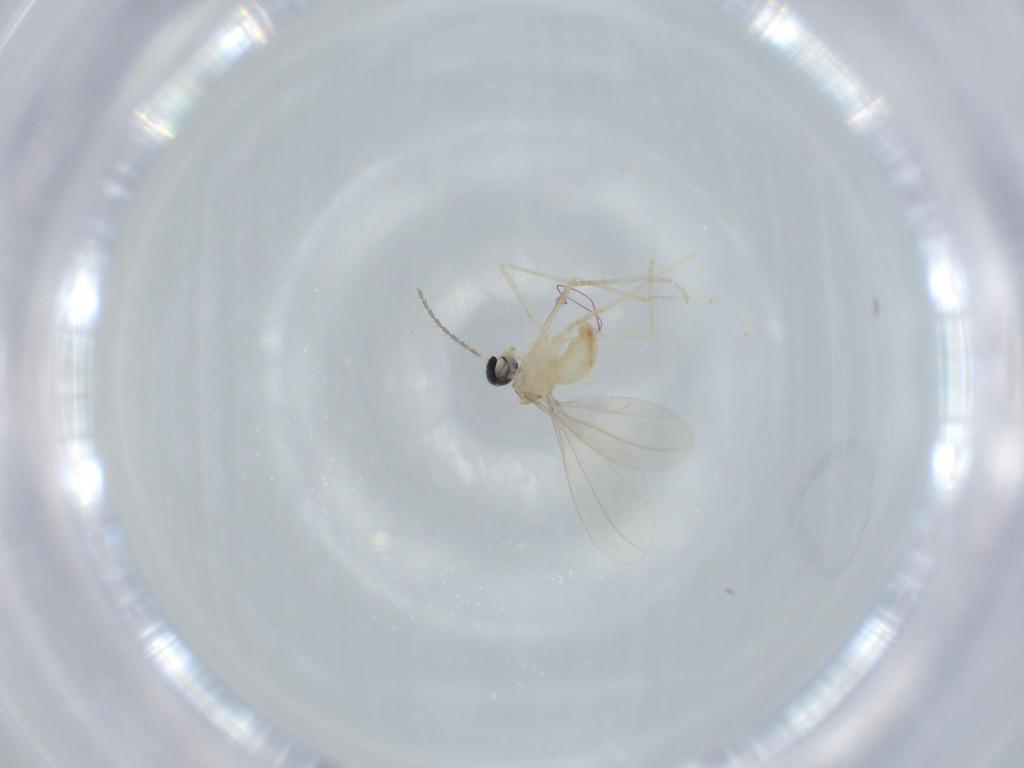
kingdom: Animalia
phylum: Arthropoda
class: Insecta
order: Diptera
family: Cecidomyiidae
